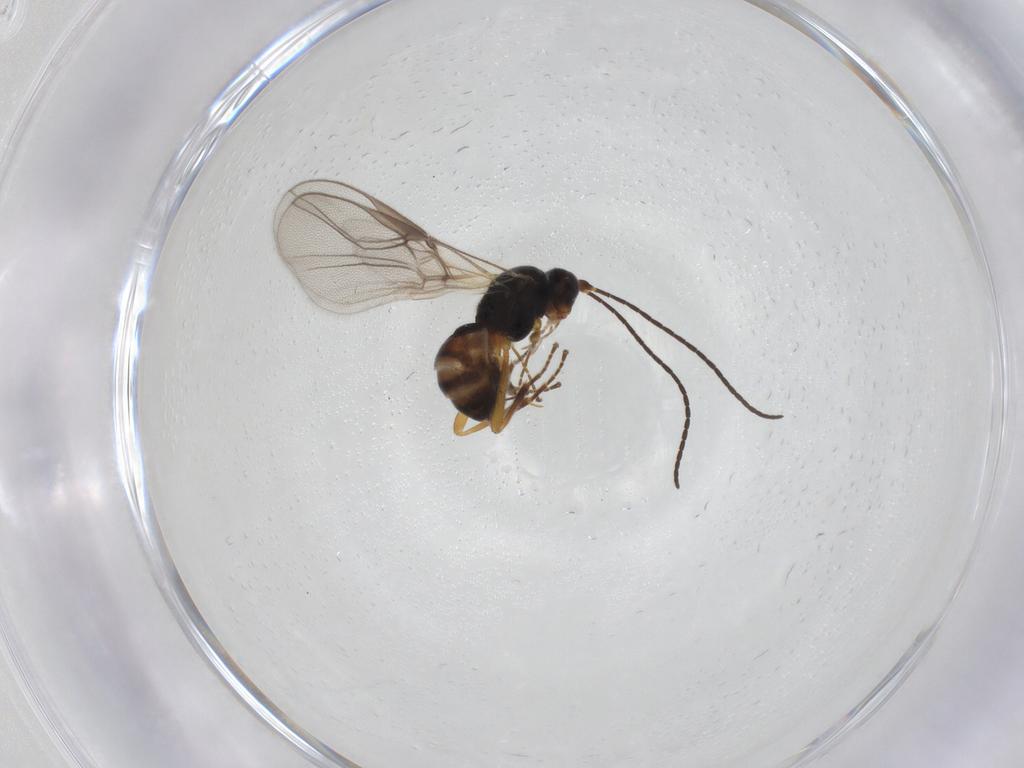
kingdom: Animalia
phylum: Arthropoda
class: Insecta
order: Hymenoptera
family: Braconidae
